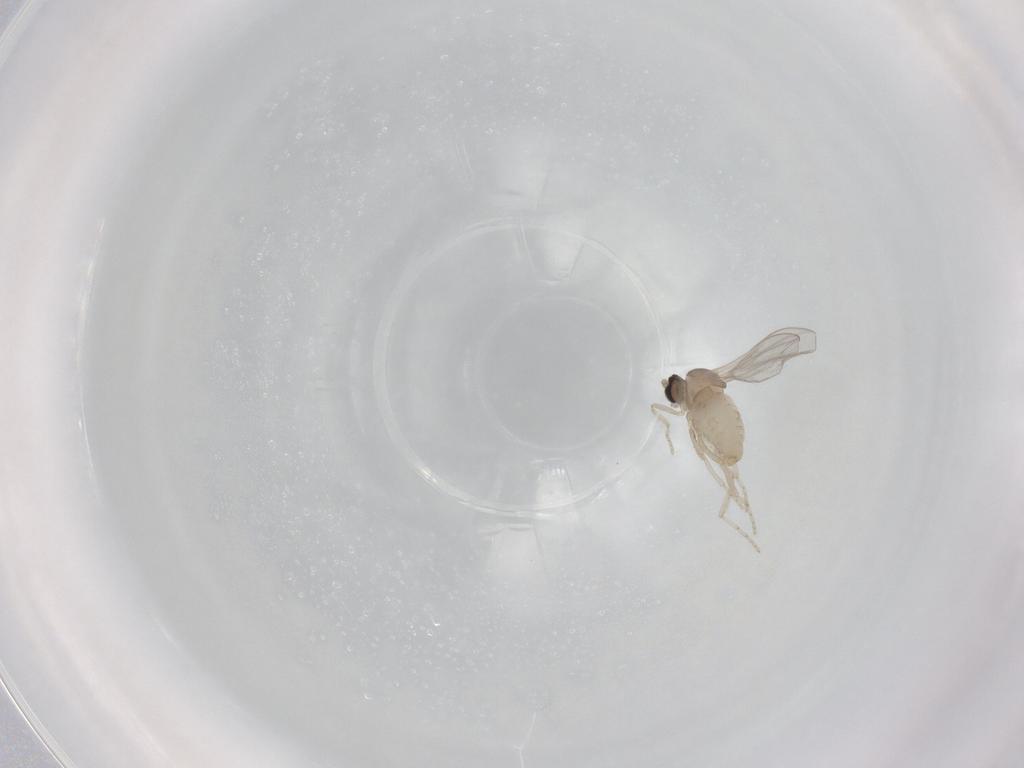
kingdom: Animalia
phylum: Arthropoda
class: Insecta
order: Diptera
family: Cecidomyiidae
